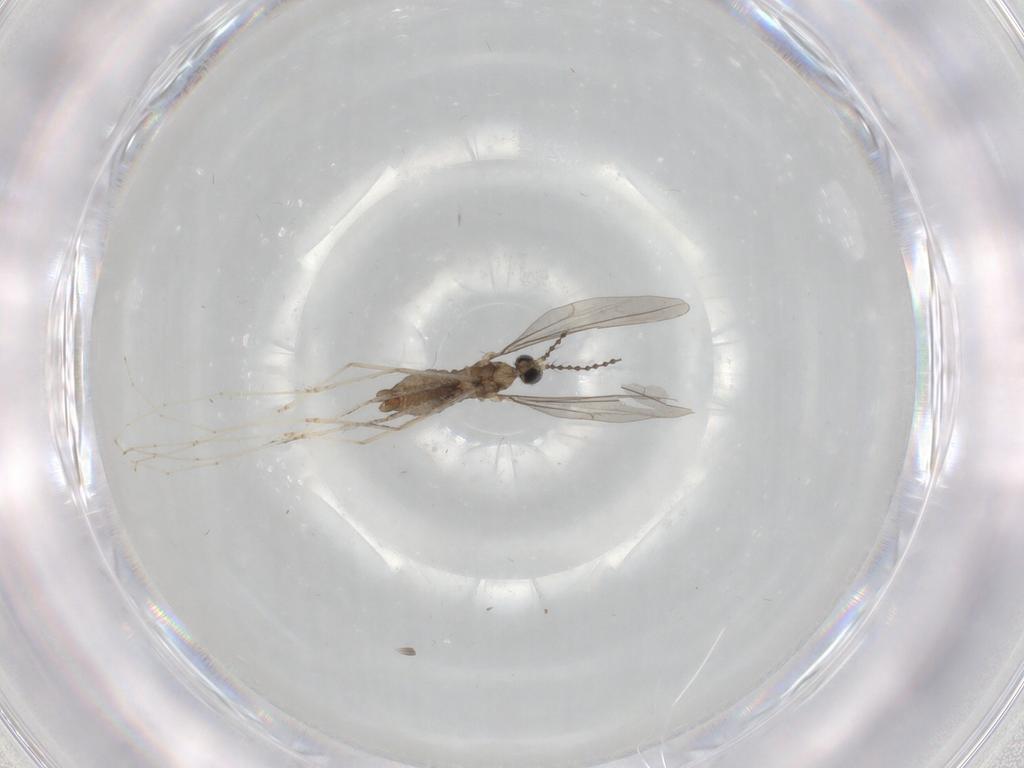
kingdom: Animalia
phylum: Arthropoda
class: Insecta
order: Diptera
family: Cecidomyiidae
